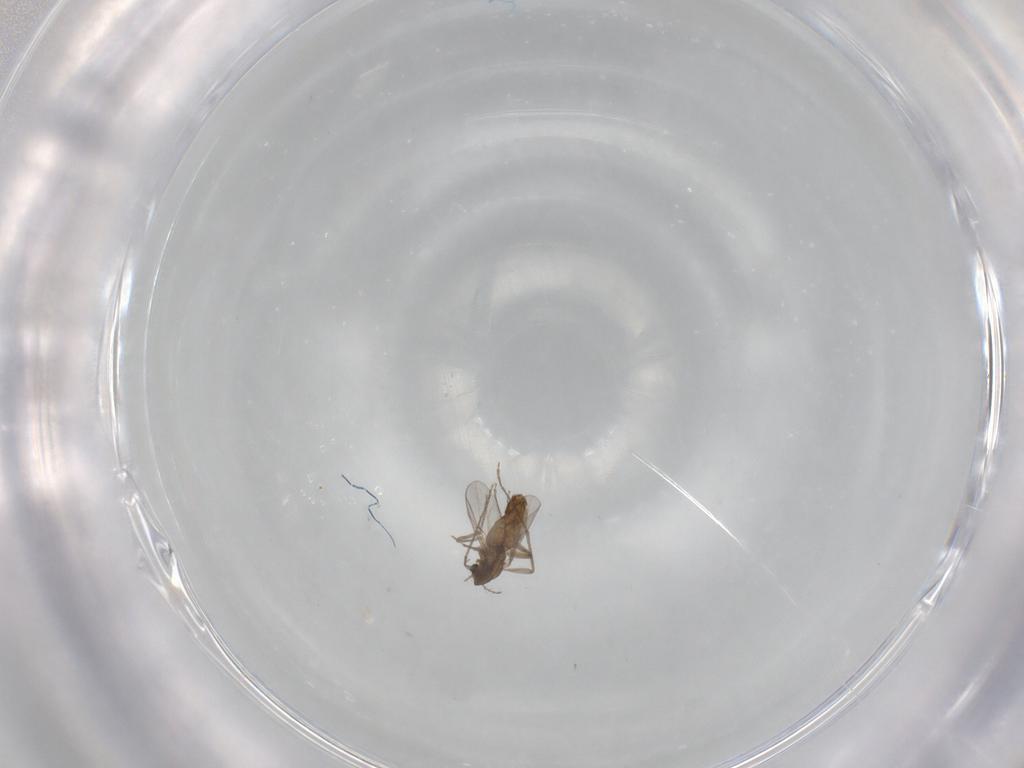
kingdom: Animalia
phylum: Arthropoda
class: Insecta
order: Diptera
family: Chironomidae
